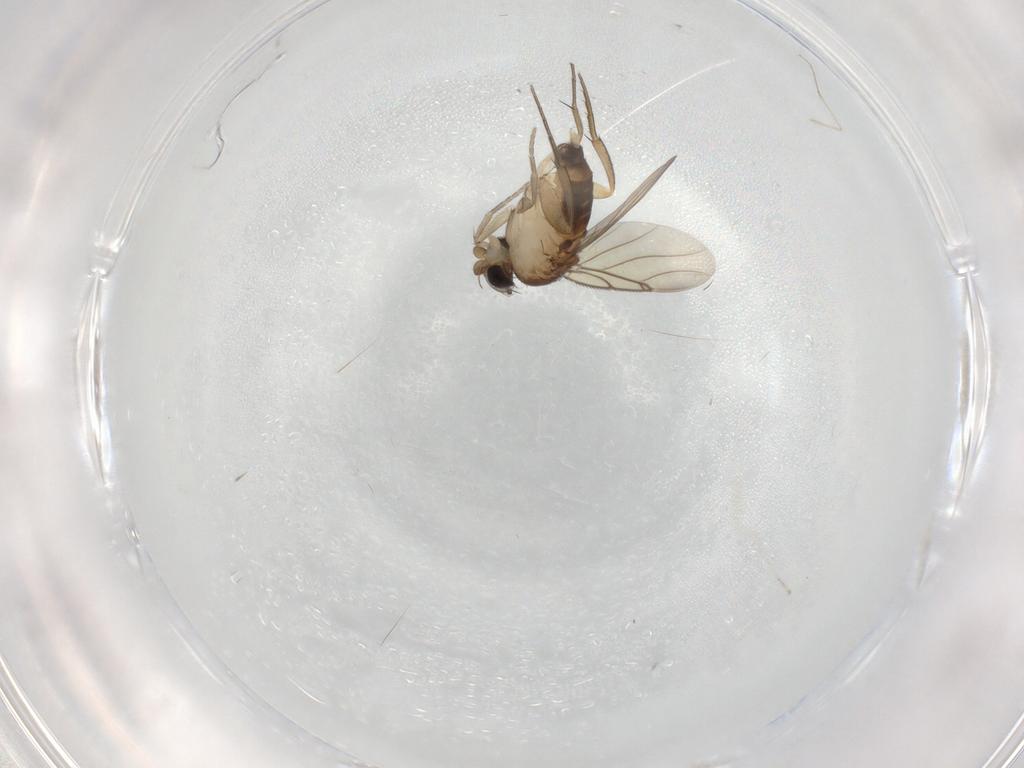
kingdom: Animalia
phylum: Arthropoda
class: Insecta
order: Diptera
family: Cecidomyiidae
